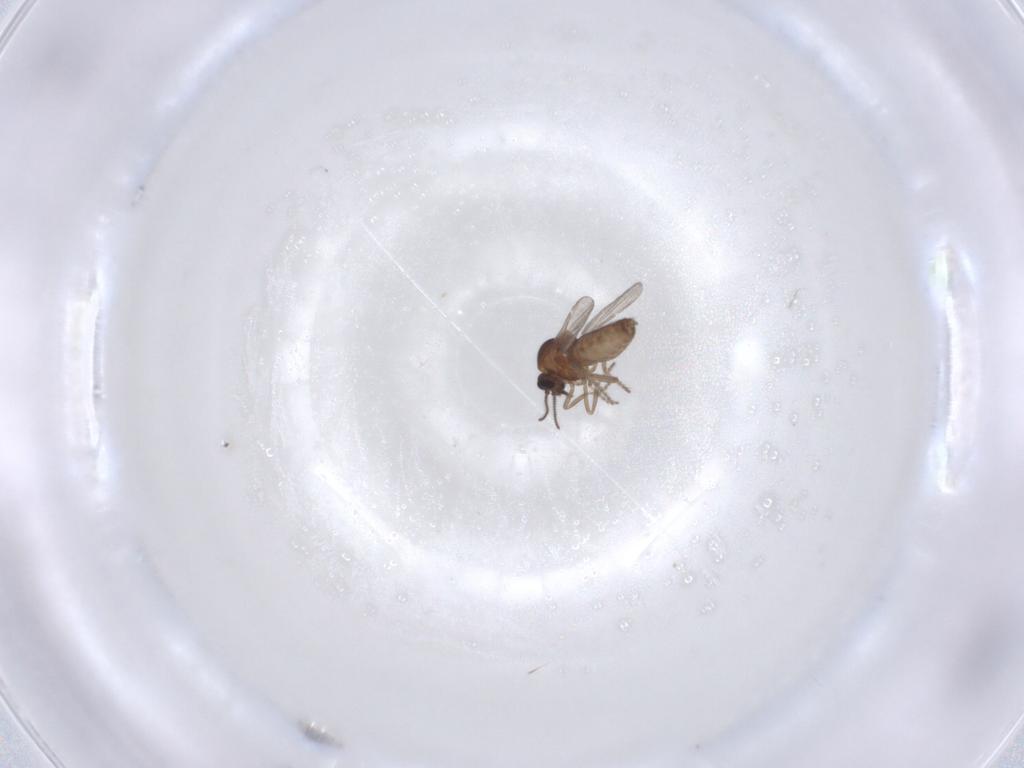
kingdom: Animalia
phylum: Arthropoda
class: Insecta
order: Diptera
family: Ceratopogonidae
